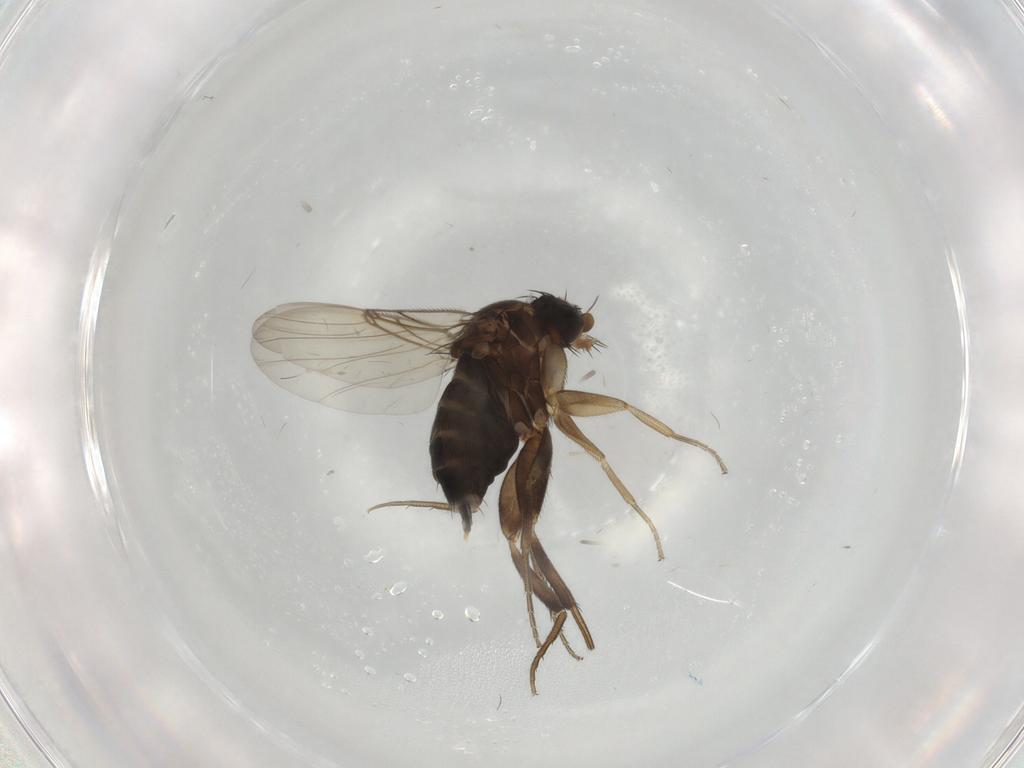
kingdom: Animalia
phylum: Arthropoda
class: Insecta
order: Diptera
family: Phoridae
